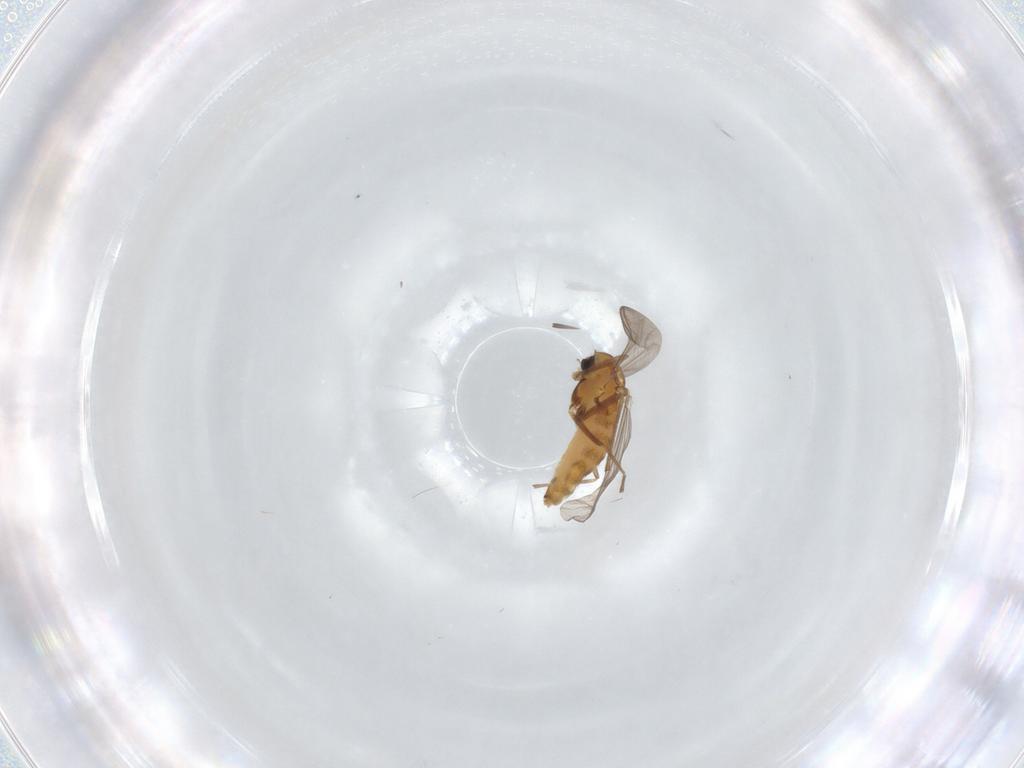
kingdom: Animalia
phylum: Arthropoda
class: Insecta
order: Diptera
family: Chironomidae
